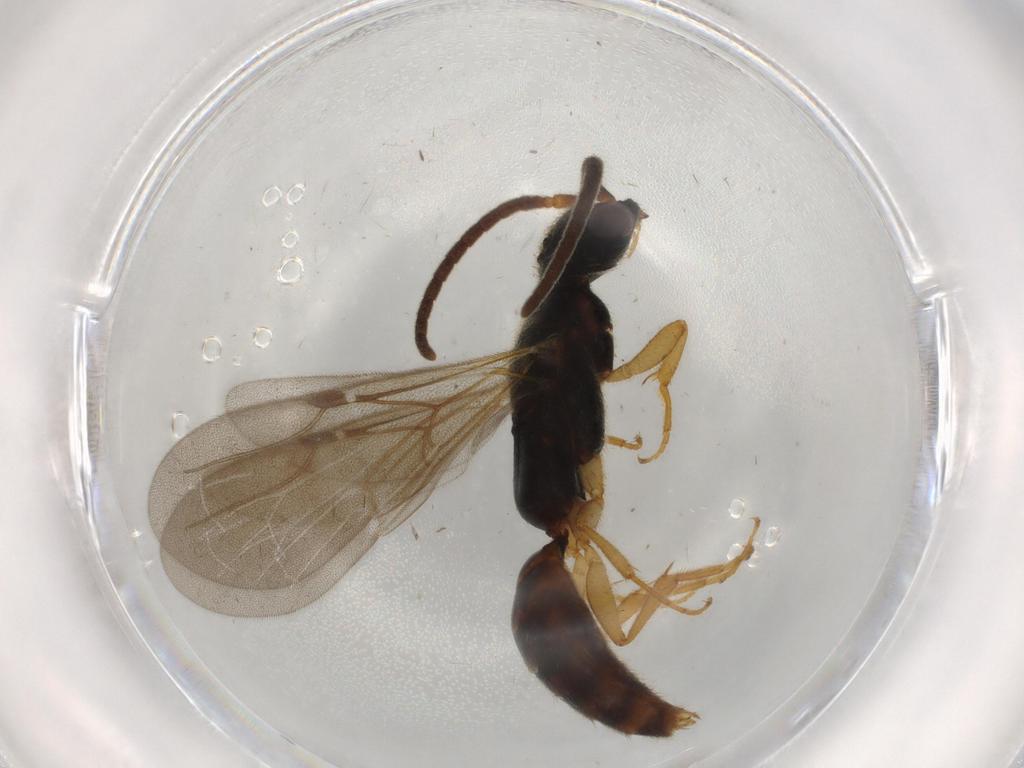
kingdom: Animalia
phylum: Arthropoda
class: Insecta
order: Hymenoptera
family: Bethylidae
